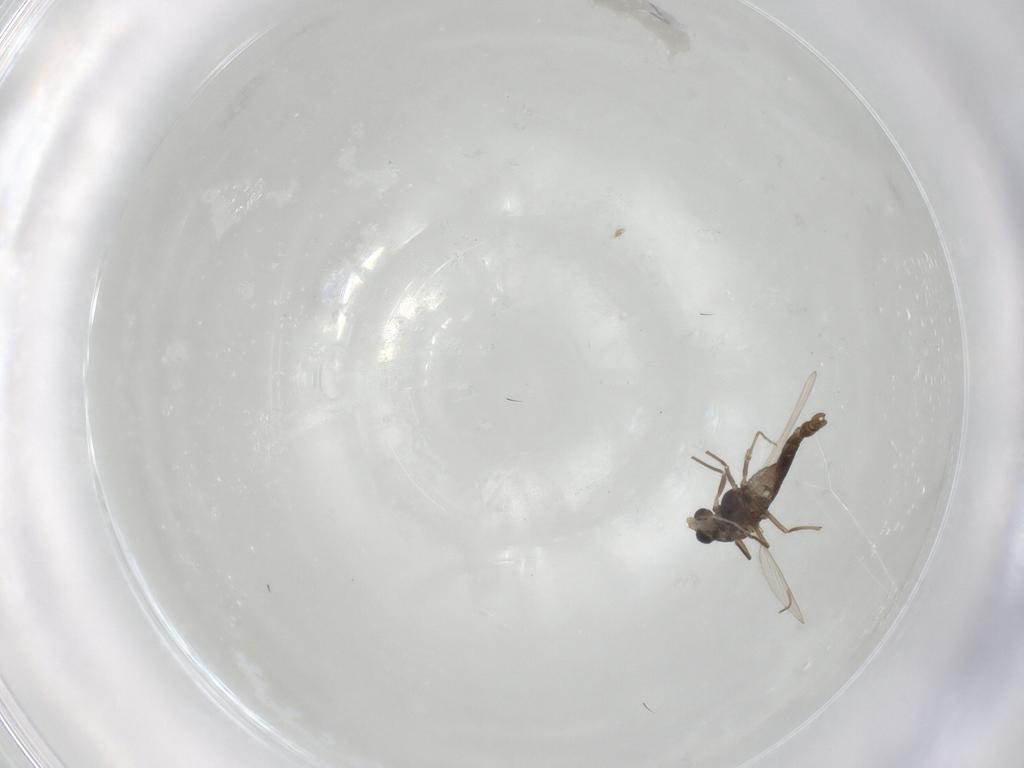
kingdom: Animalia
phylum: Arthropoda
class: Insecta
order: Diptera
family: Chironomidae
